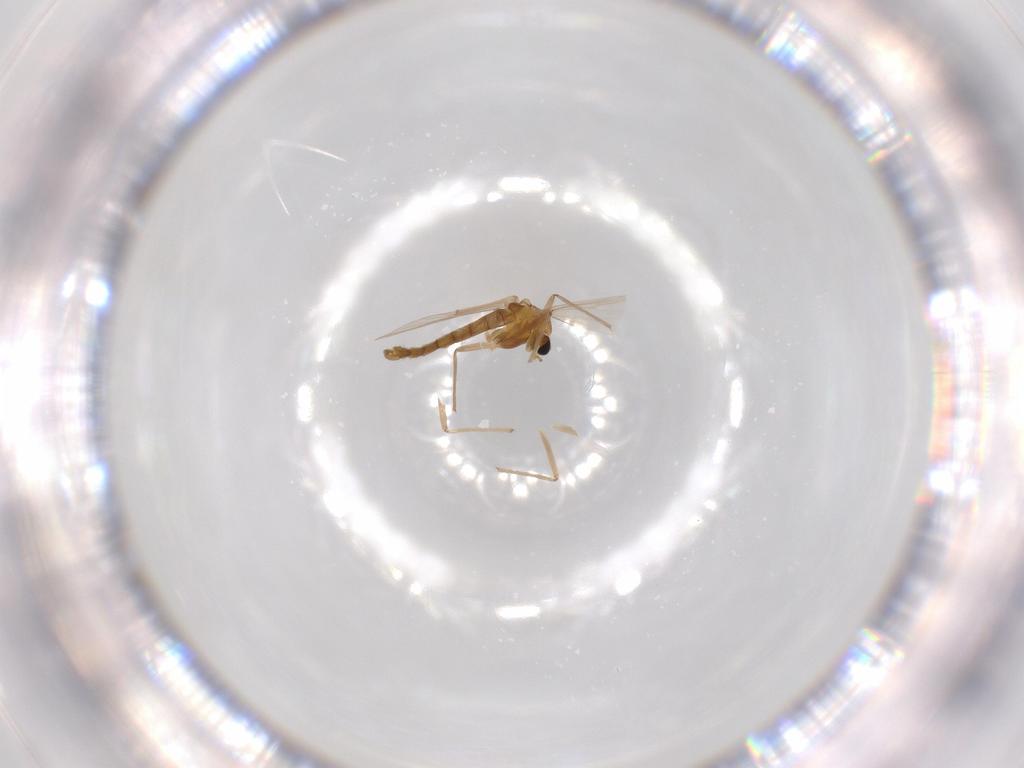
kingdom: Animalia
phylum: Arthropoda
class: Insecta
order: Diptera
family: Chironomidae
